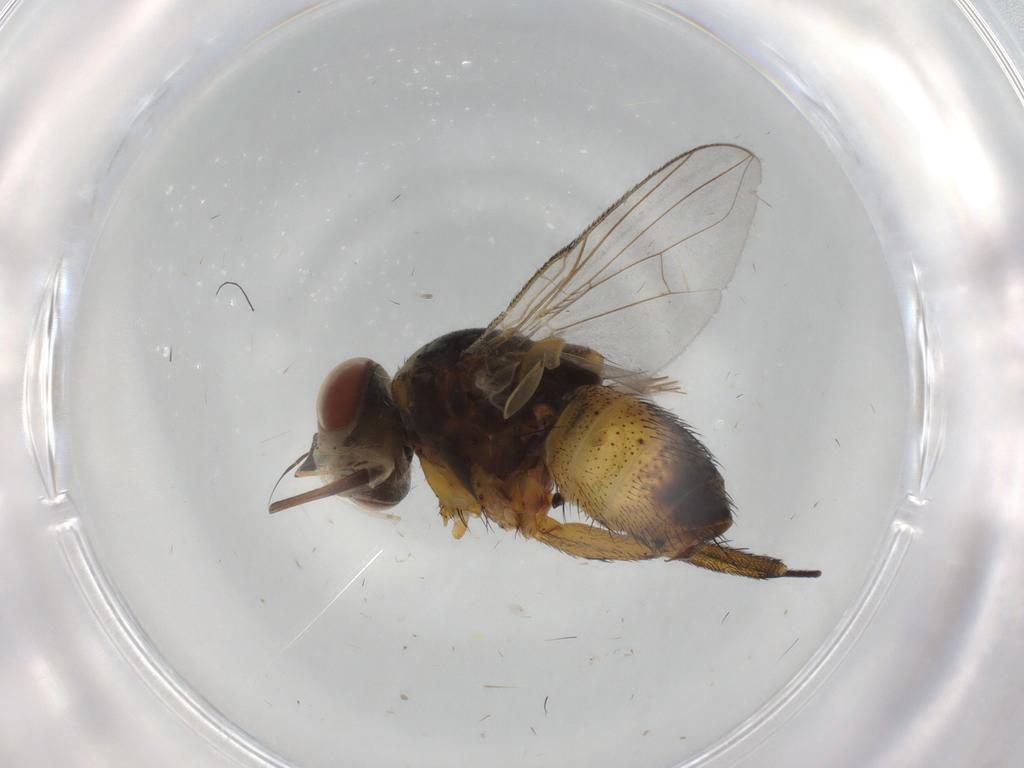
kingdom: Animalia
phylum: Arthropoda
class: Insecta
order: Diptera
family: Tachinidae
